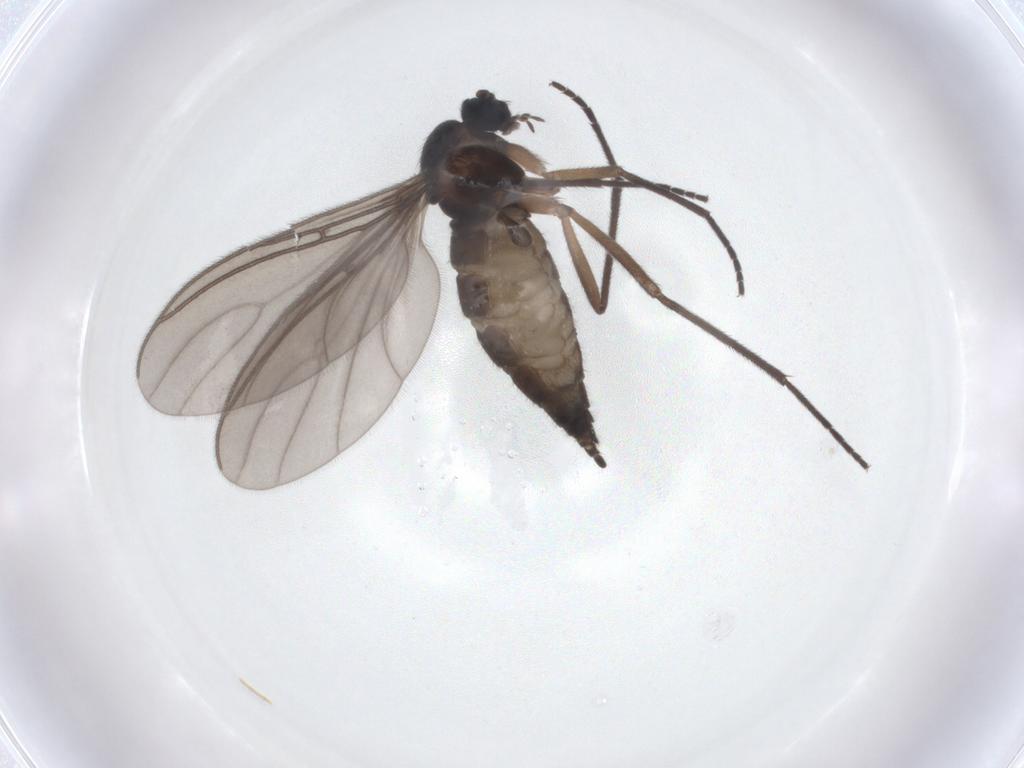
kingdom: Animalia
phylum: Arthropoda
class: Insecta
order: Diptera
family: Sciaridae
